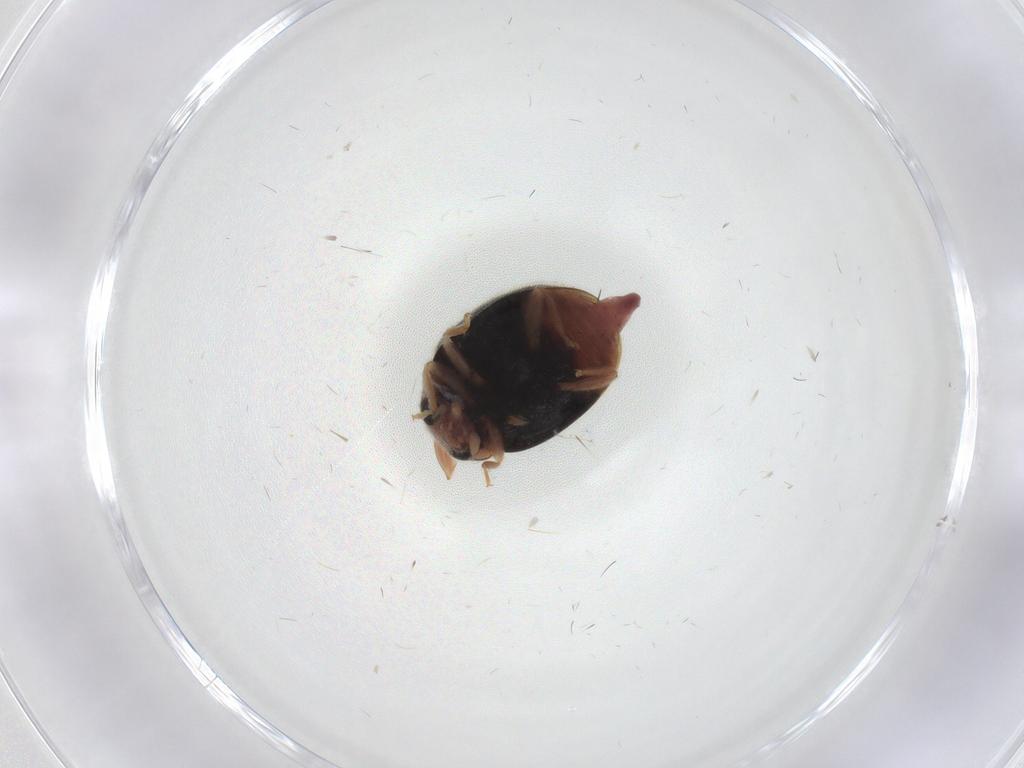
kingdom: Animalia
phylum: Arthropoda
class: Insecta
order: Coleoptera
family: Coccinellidae
